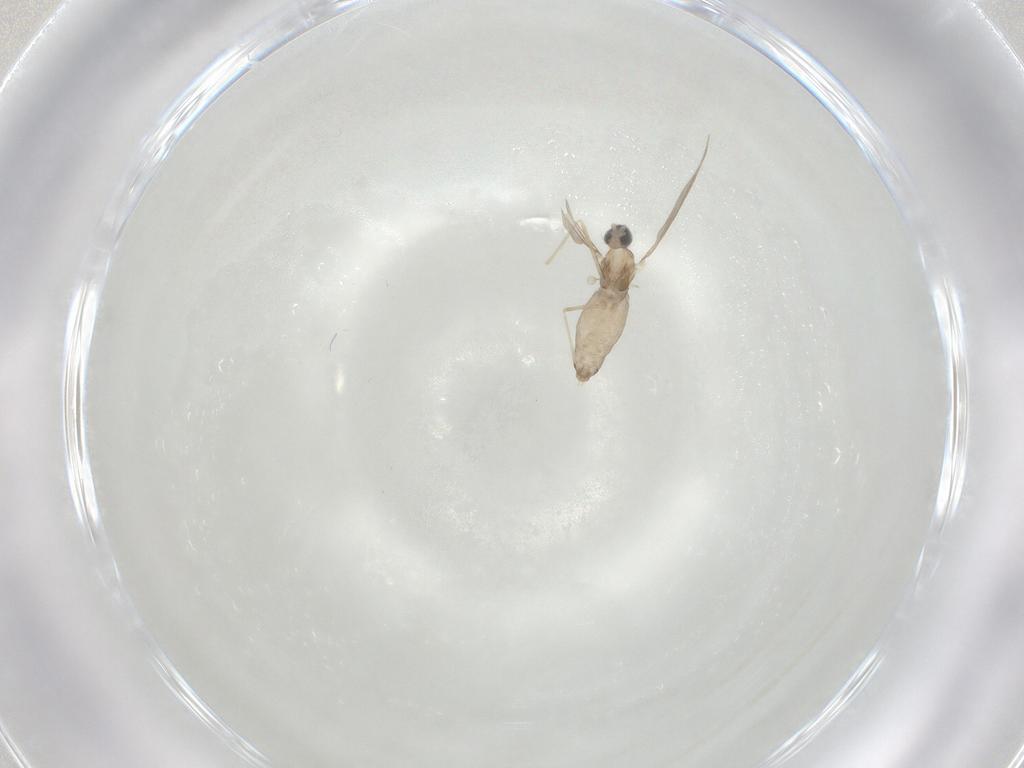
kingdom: Animalia
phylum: Arthropoda
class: Insecta
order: Diptera
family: Cecidomyiidae
